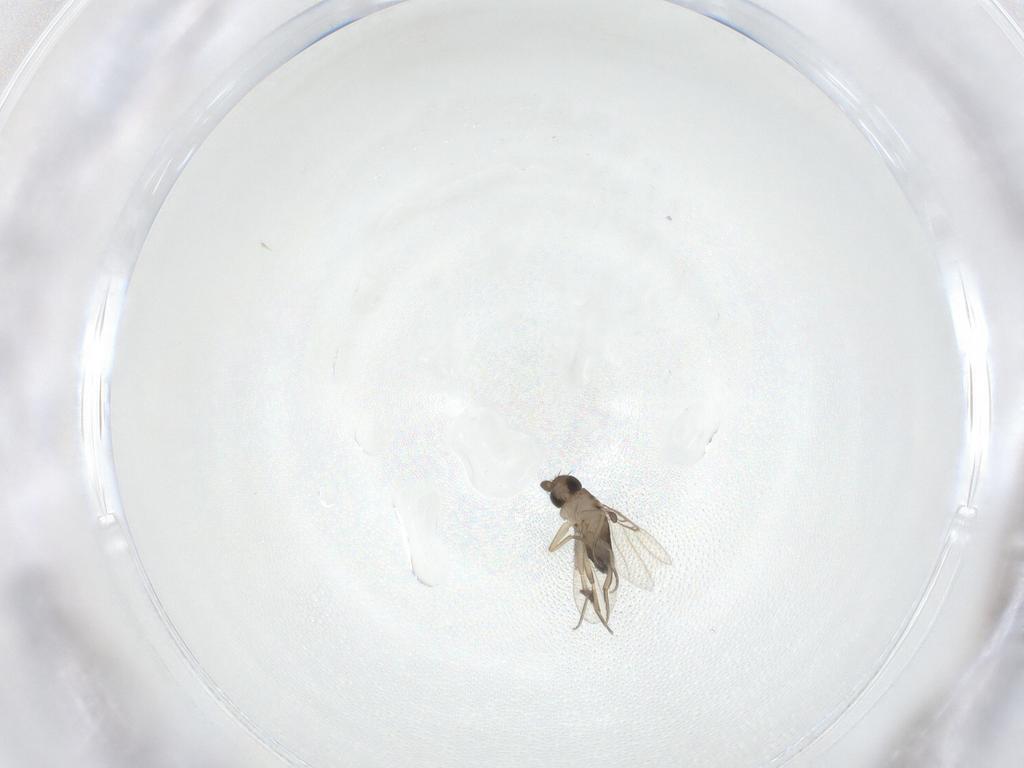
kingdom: Animalia
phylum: Arthropoda
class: Insecta
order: Diptera
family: Phoridae
